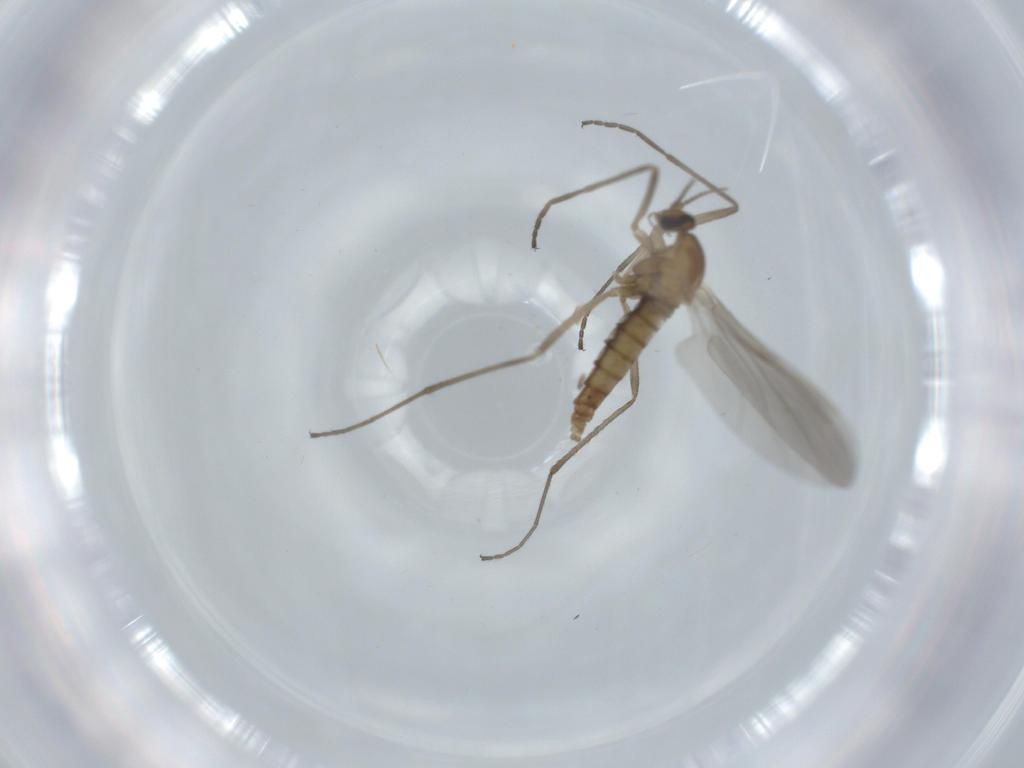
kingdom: Animalia
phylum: Arthropoda
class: Insecta
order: Diptera
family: Cecidomyiidae
